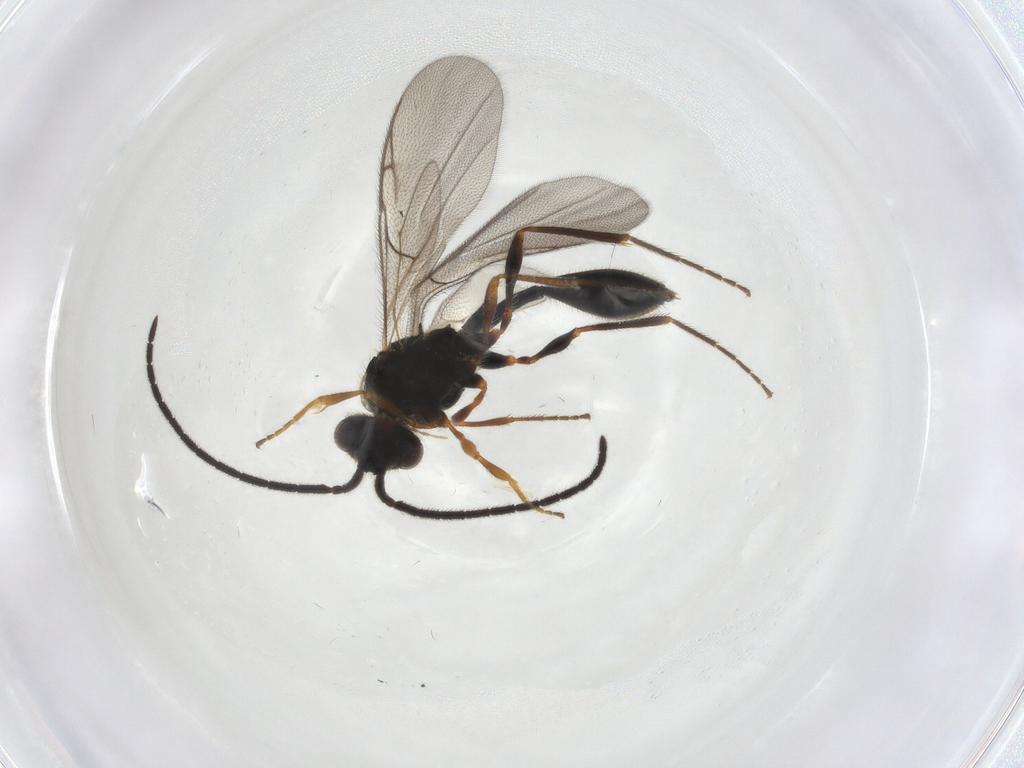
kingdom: Animalia
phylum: Arthropoda
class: Insecta
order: Hymenoptera
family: Diapriidae
